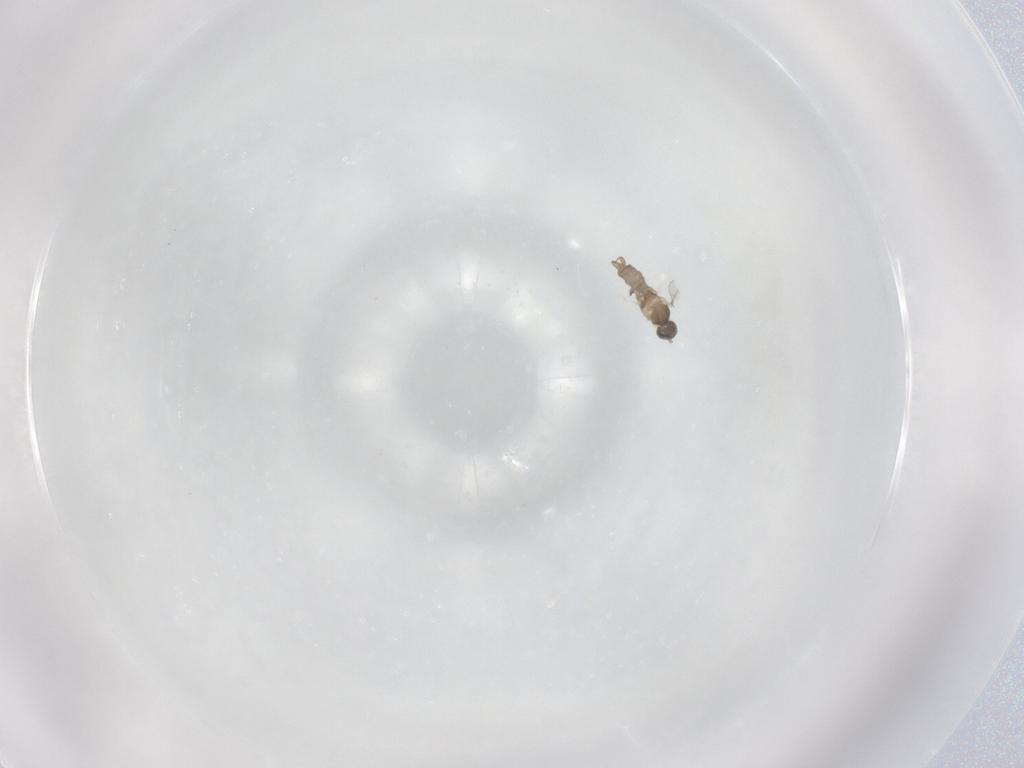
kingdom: Animalia
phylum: Arthropoda
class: Insecta
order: Diptera
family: Cecidomyiidae
